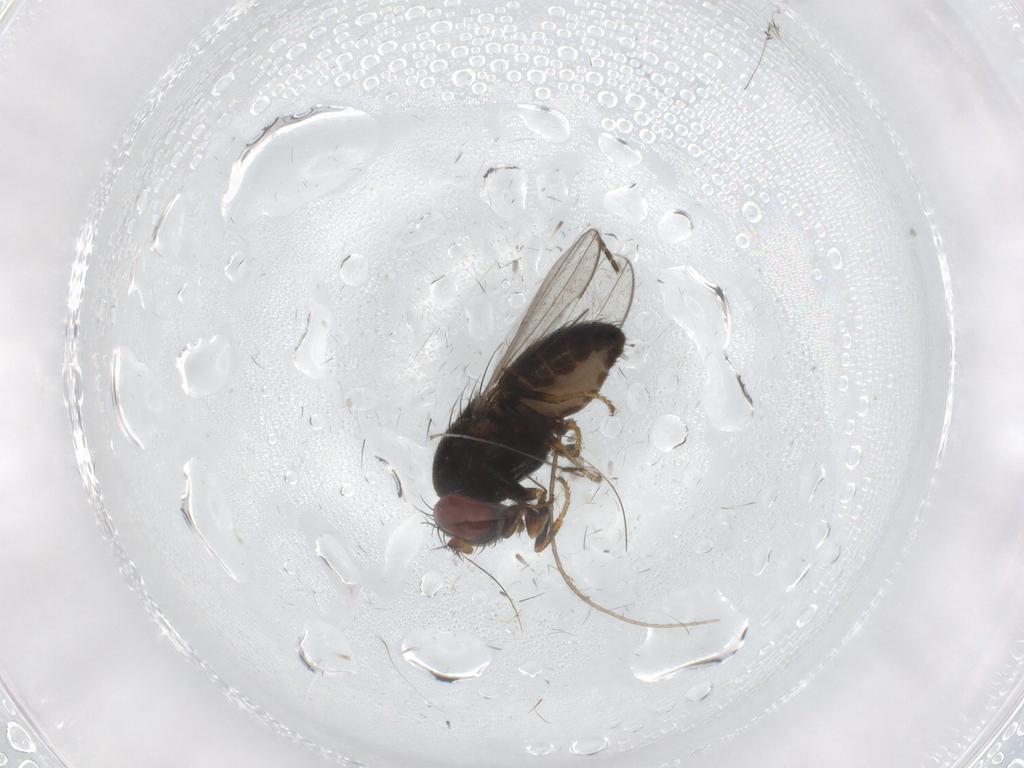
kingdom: Animalia
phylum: Arthropoda
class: Insecta
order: Diptera
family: Sciaridae
